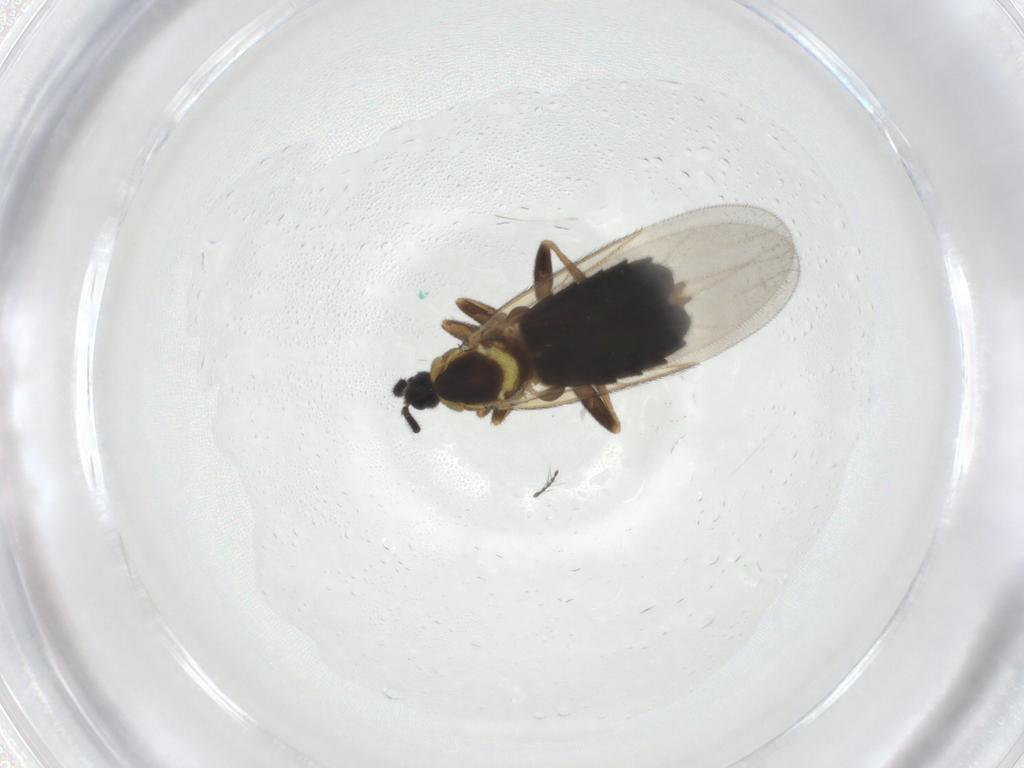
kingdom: Animalia
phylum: Arthropoda
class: Insecta
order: Diptera
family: Scatopsidae
